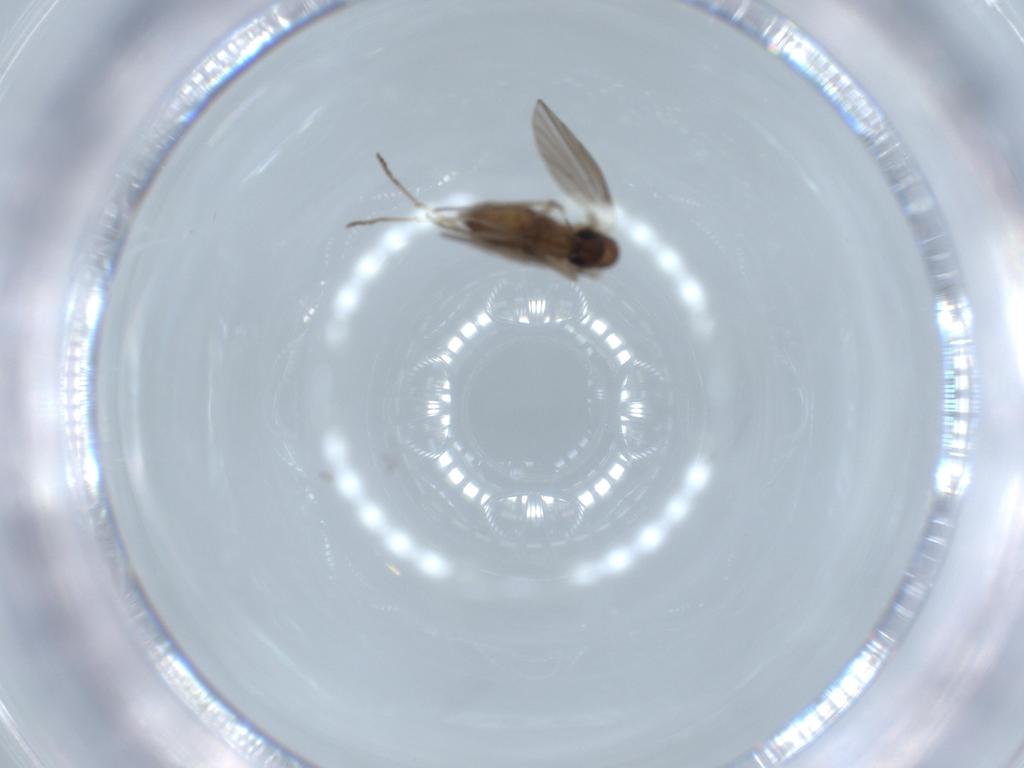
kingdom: Animalia
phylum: Arthropoda
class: Insecta
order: Diptera
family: Psychodidae
